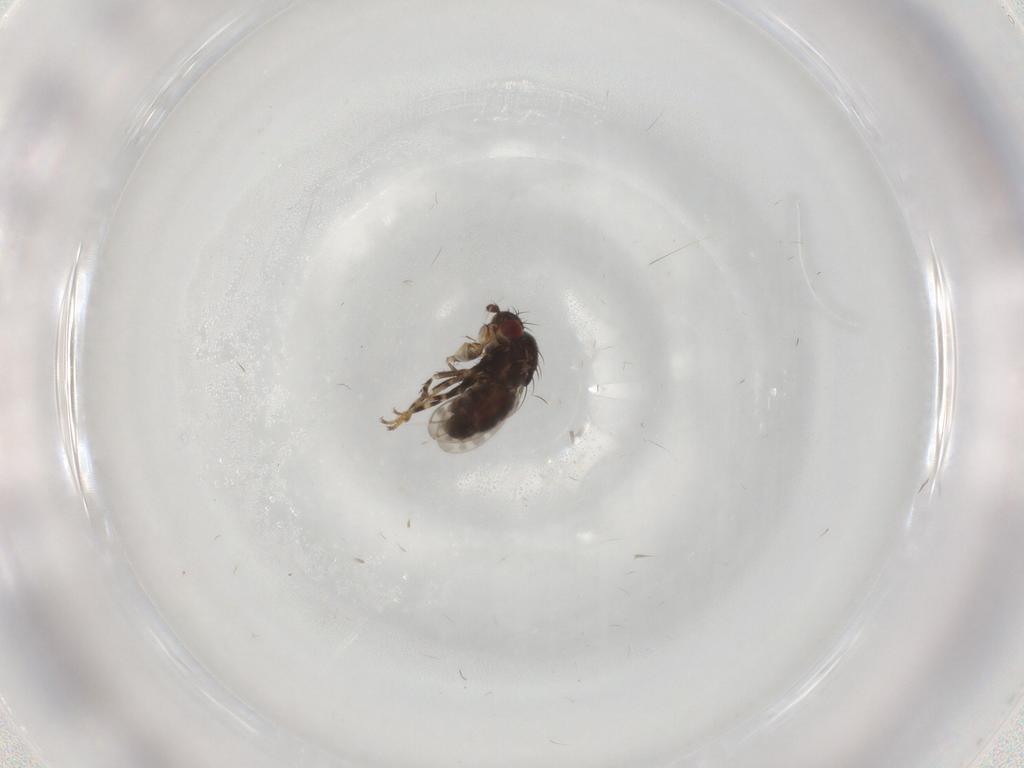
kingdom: Animalia
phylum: Arthropoda
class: Insecta
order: Diptera
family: Sphaeroceridae
